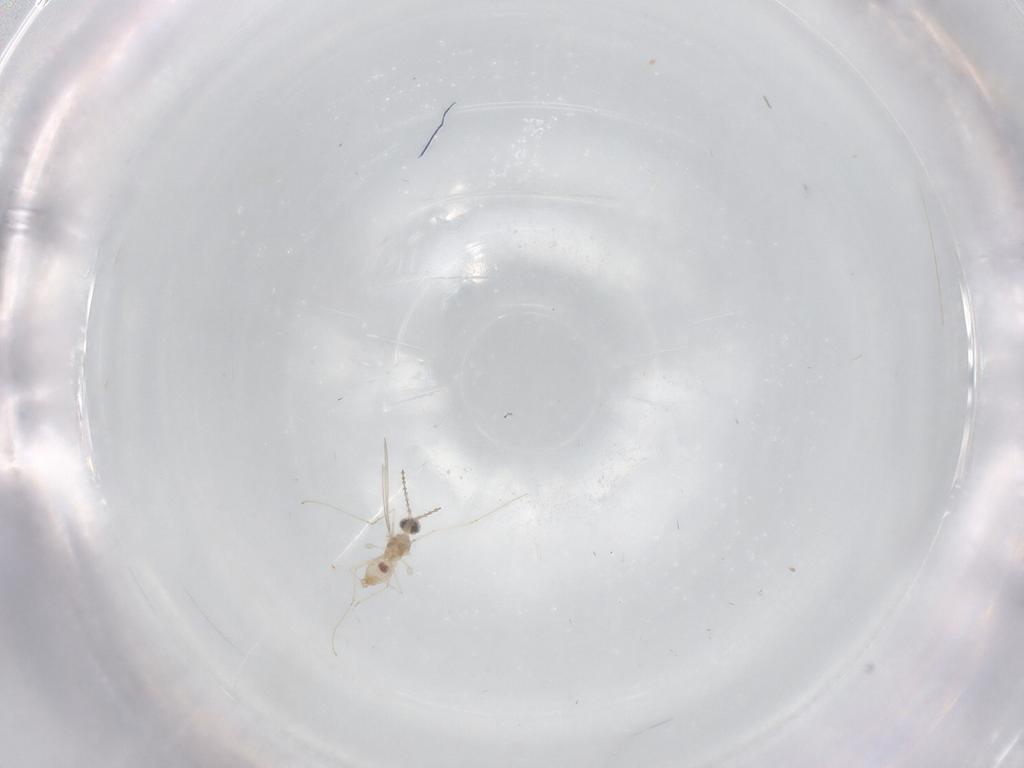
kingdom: Animalia
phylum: Arthropoda
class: Insecta
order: Diptera
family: Cecidomyiidae
